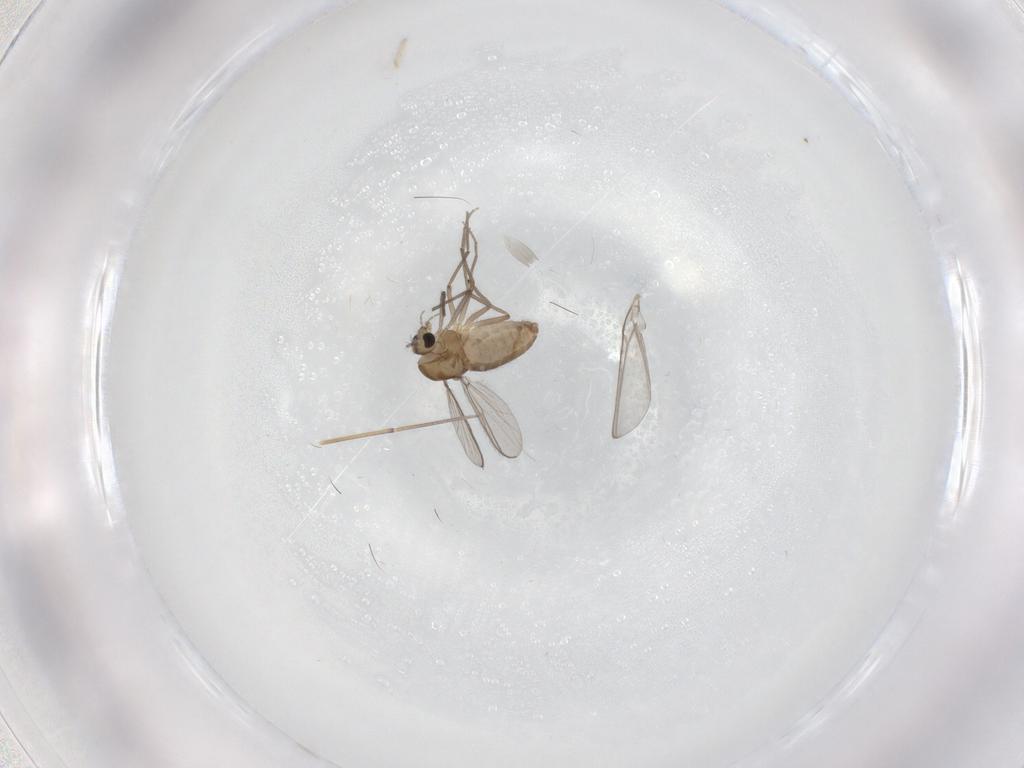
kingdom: Animalia
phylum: Arthropoda
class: Insecta
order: Diptera
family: Chironomidae
